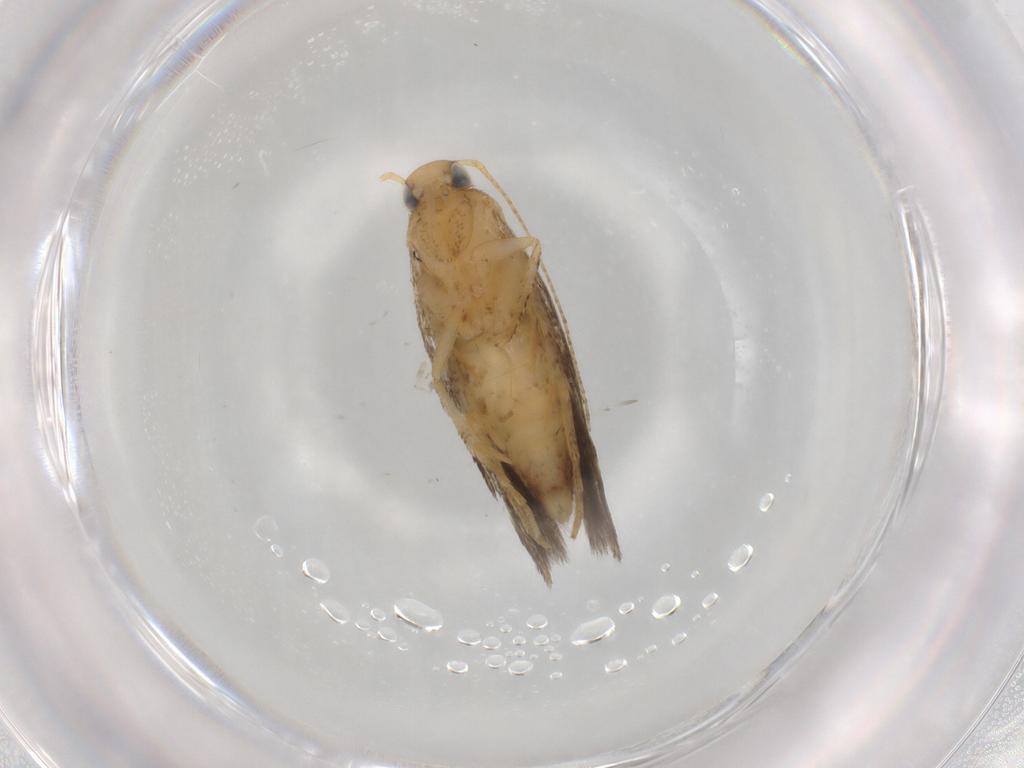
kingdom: Animalia
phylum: Arthropoda
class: Insecta
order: Lepidoptera
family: Gelechiidae
